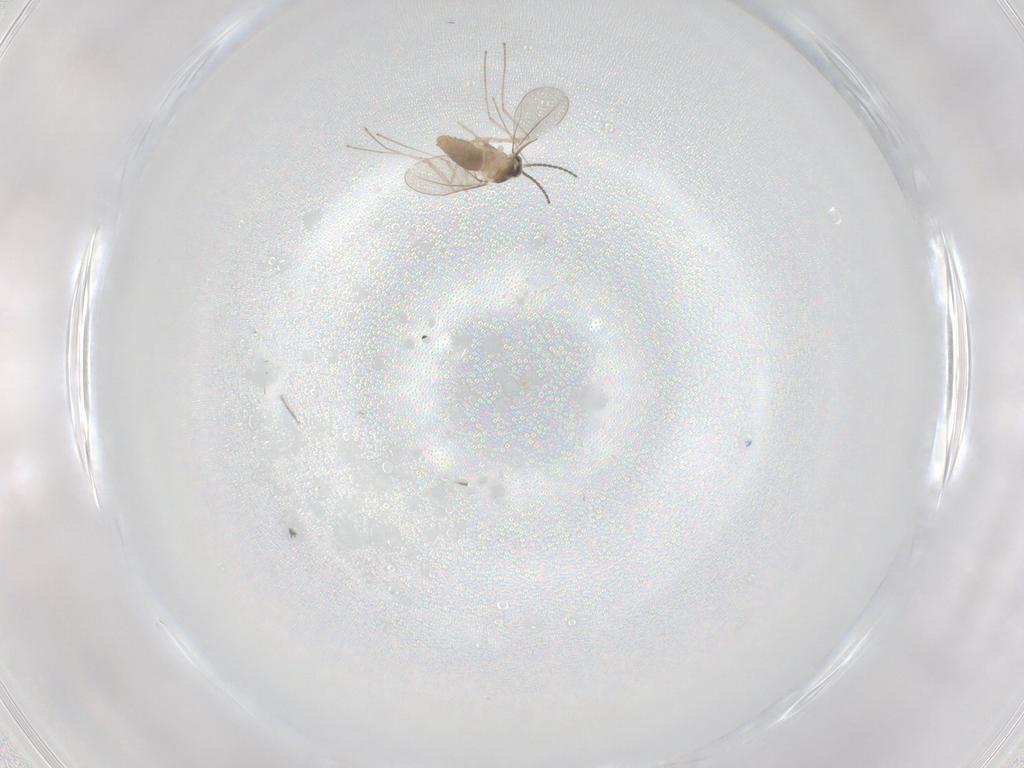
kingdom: Animalia
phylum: Arthropoda
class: Insecta
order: Diptera
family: Cecidomyiidae
